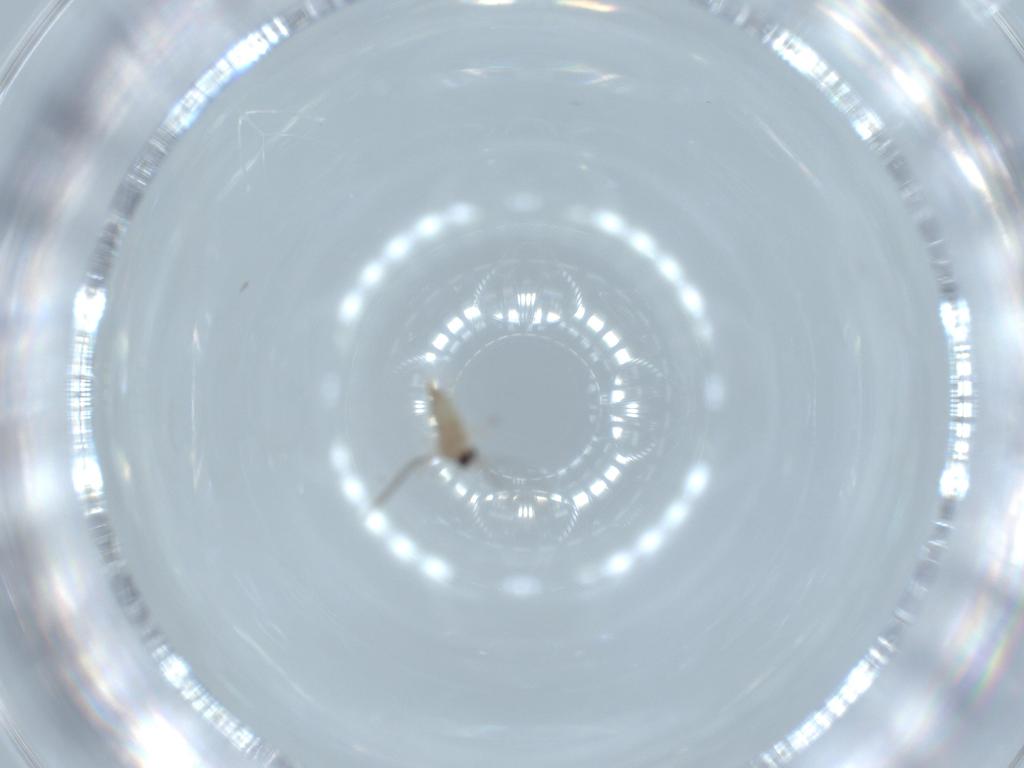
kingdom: Animalia
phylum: Arthropoda
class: Insecta
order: Diptera
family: Cecidomyiidae
